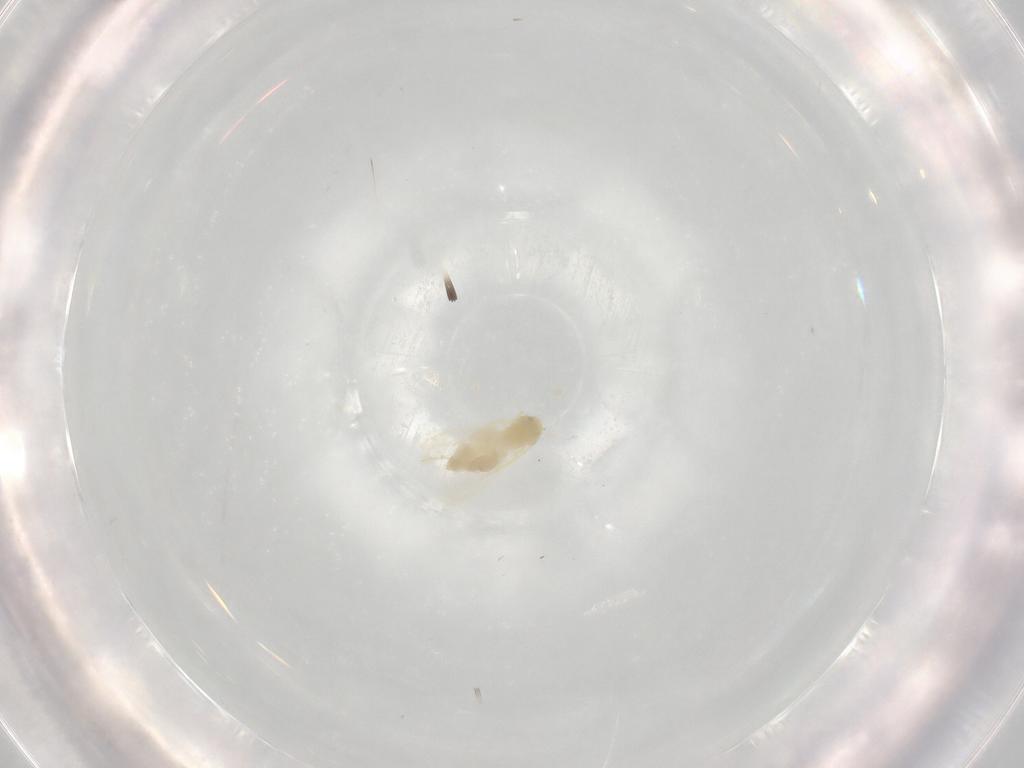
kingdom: Animalia
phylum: Arthropoda
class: Insecta
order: Hemiptera
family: Aleyrodidae
